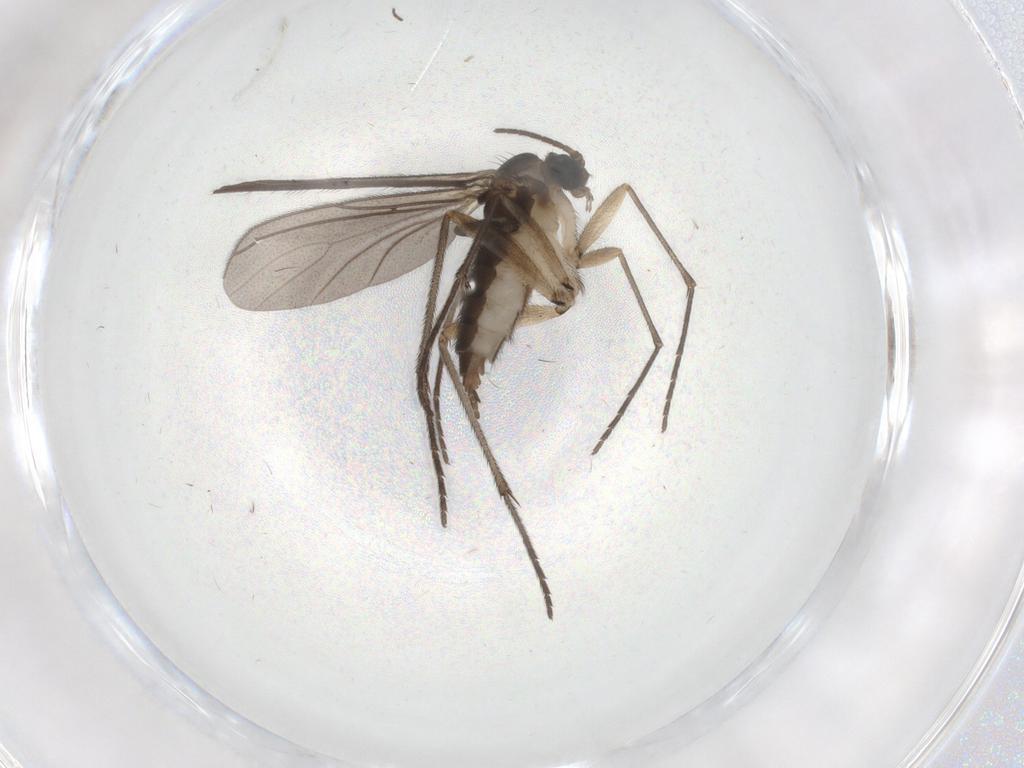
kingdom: Animalia
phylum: Arthropoda
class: Insecta
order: Diptera
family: Sciaridae
